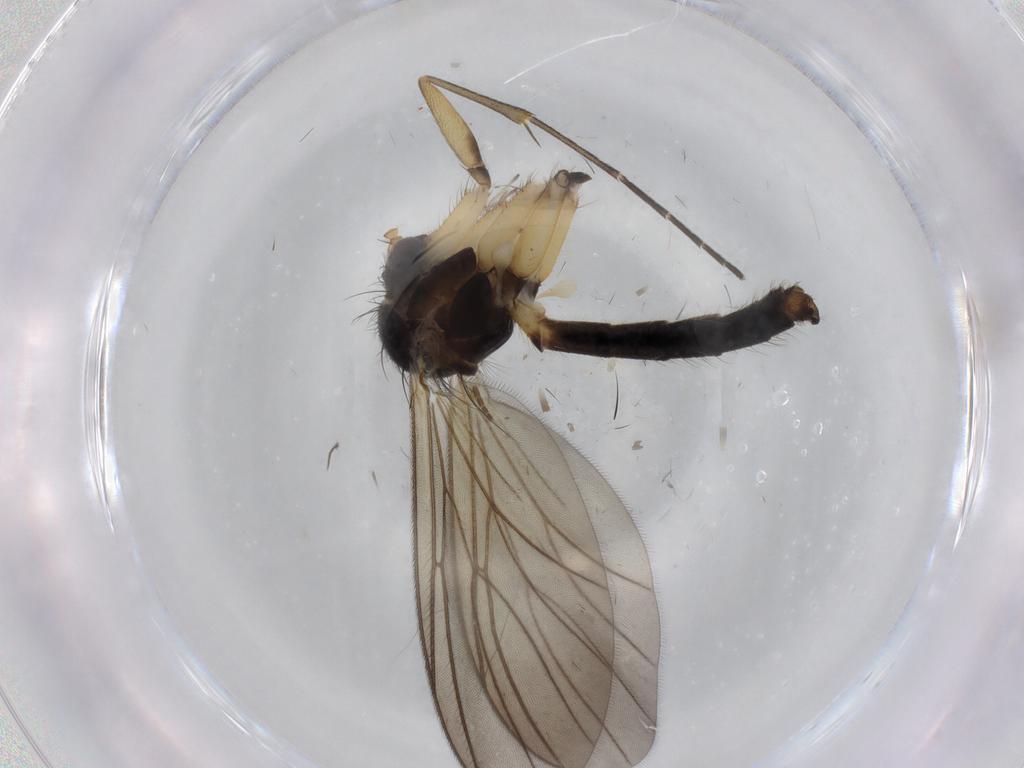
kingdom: Animalia
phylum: Arthropoda
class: Insecta
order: Diptera
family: Cecidomyiidae
